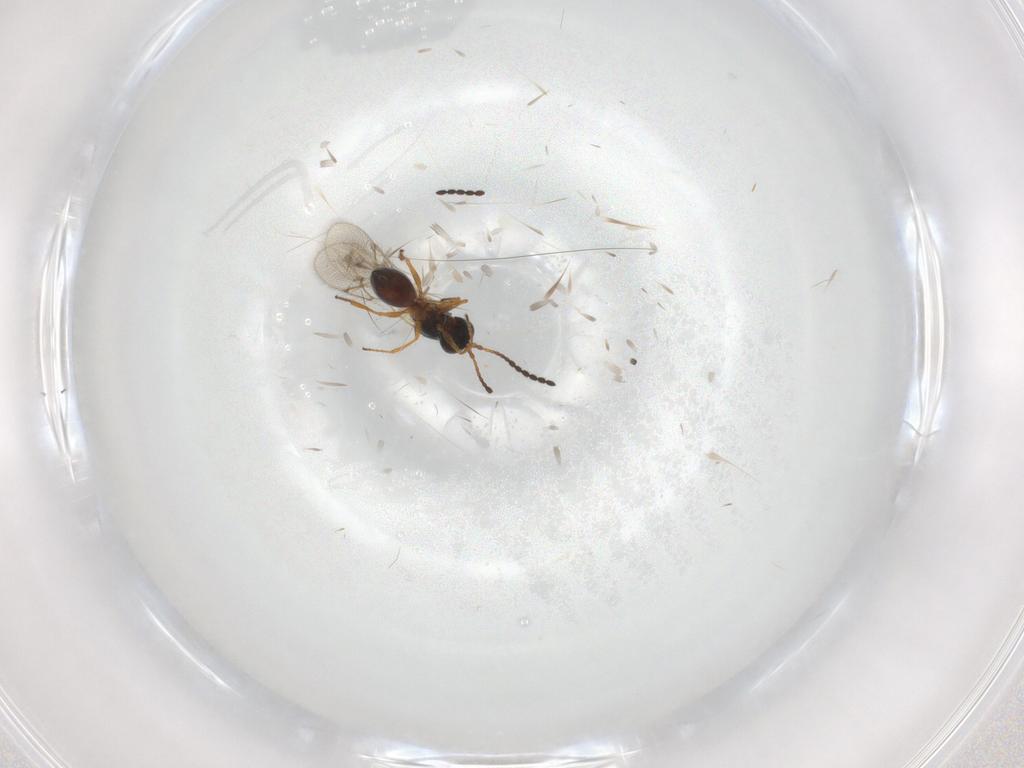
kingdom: Animalia
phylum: Arthropoda
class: Insecta
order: Hymenoptera
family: Figitidae
